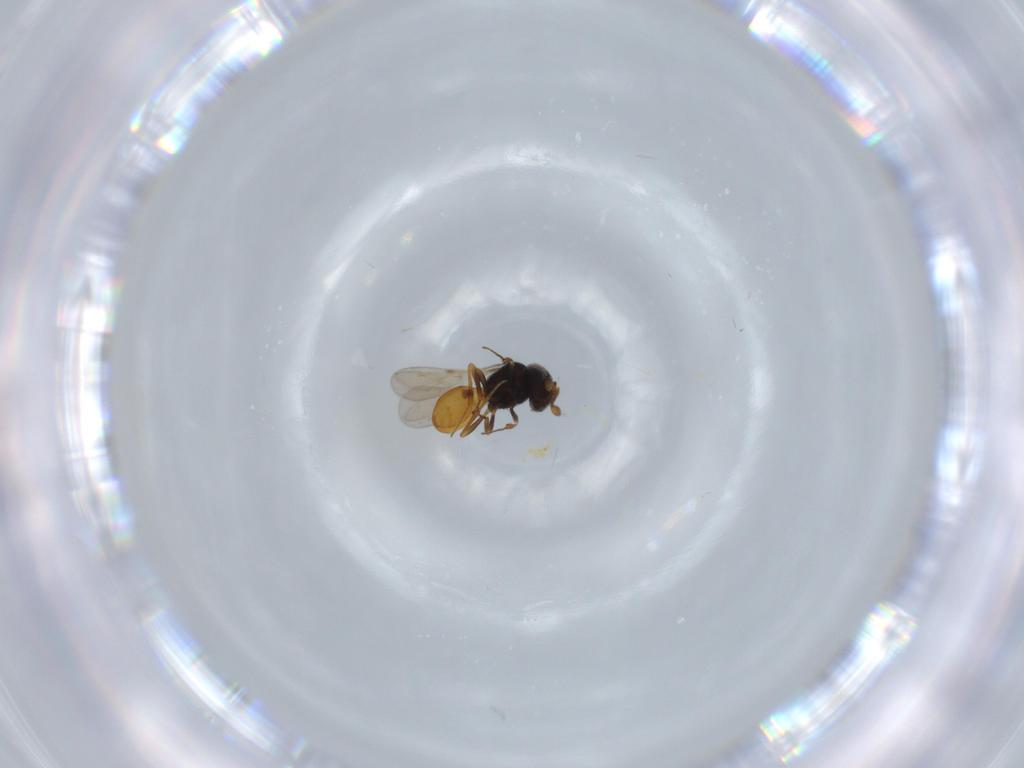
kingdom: Animalia
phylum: Arthropoda
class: Insecta
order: Hymenoptera
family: Scelionidae
